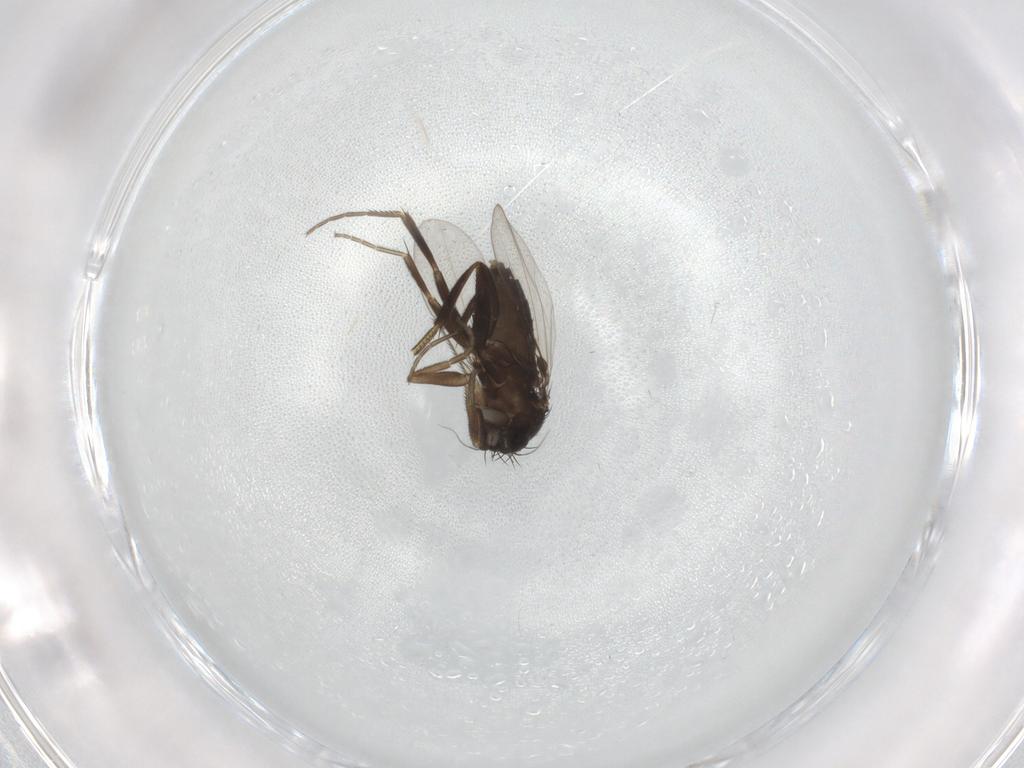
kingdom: Animalia
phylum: Arthropoda
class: Insecta
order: Diptera
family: Phoridae
